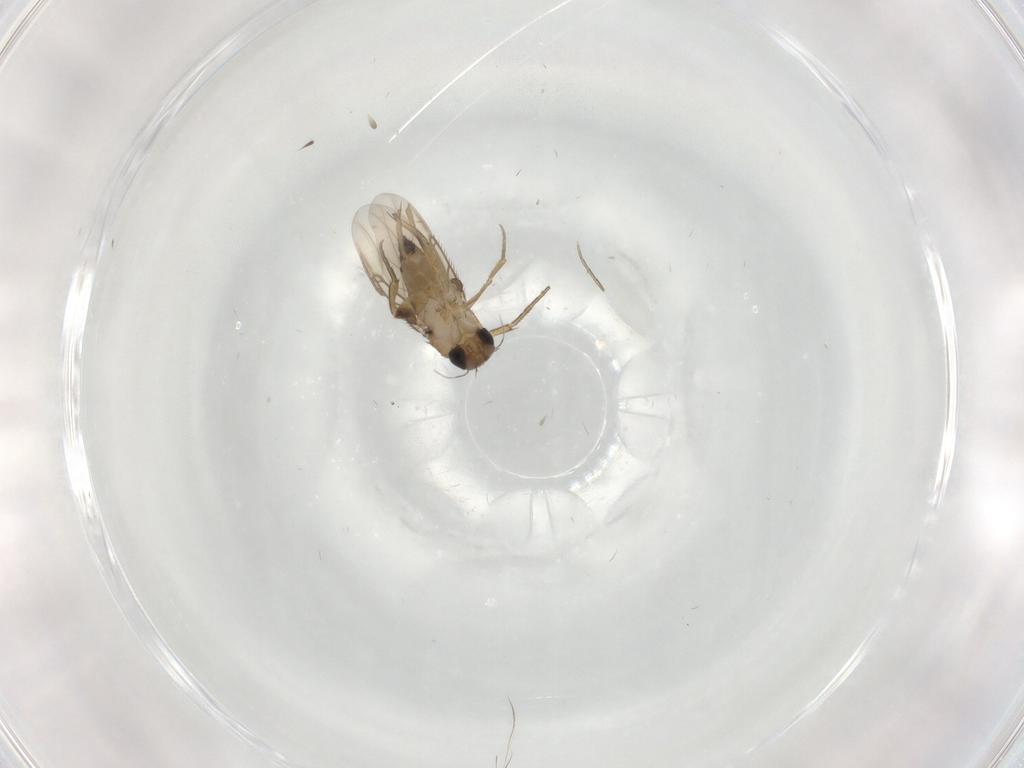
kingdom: Animalia
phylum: Arthropoda
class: Insecta
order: Diptera
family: Phoridae
